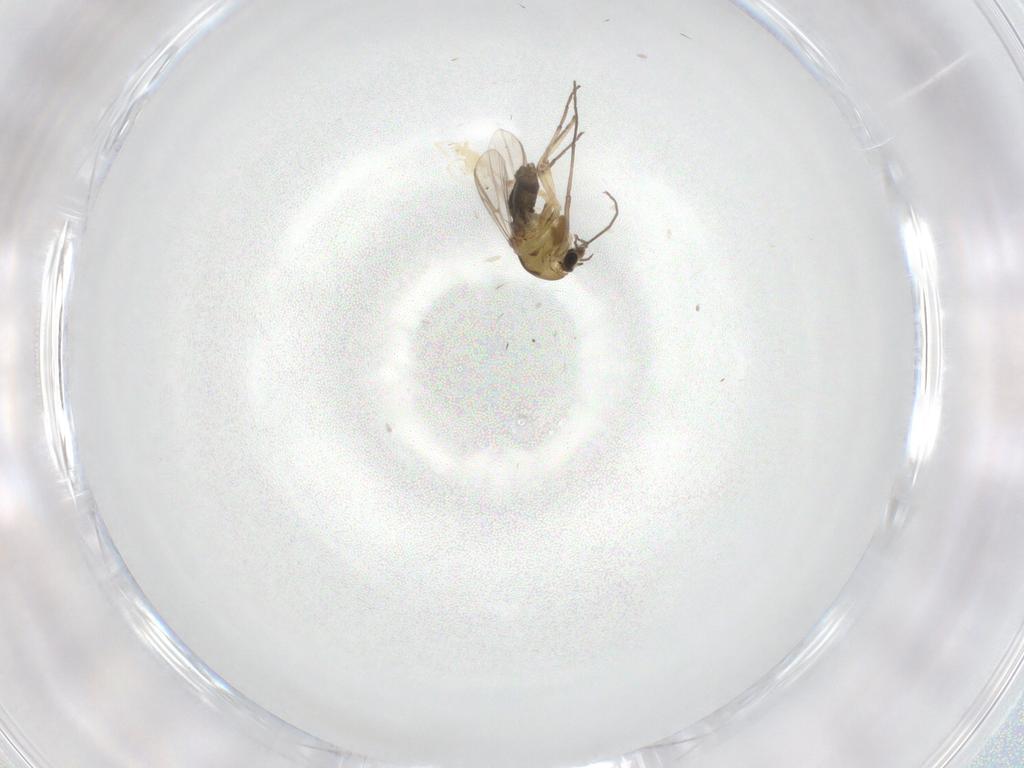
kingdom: Animalia
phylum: Arthropoda
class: Insecta
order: Diptera
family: Chironomidae
